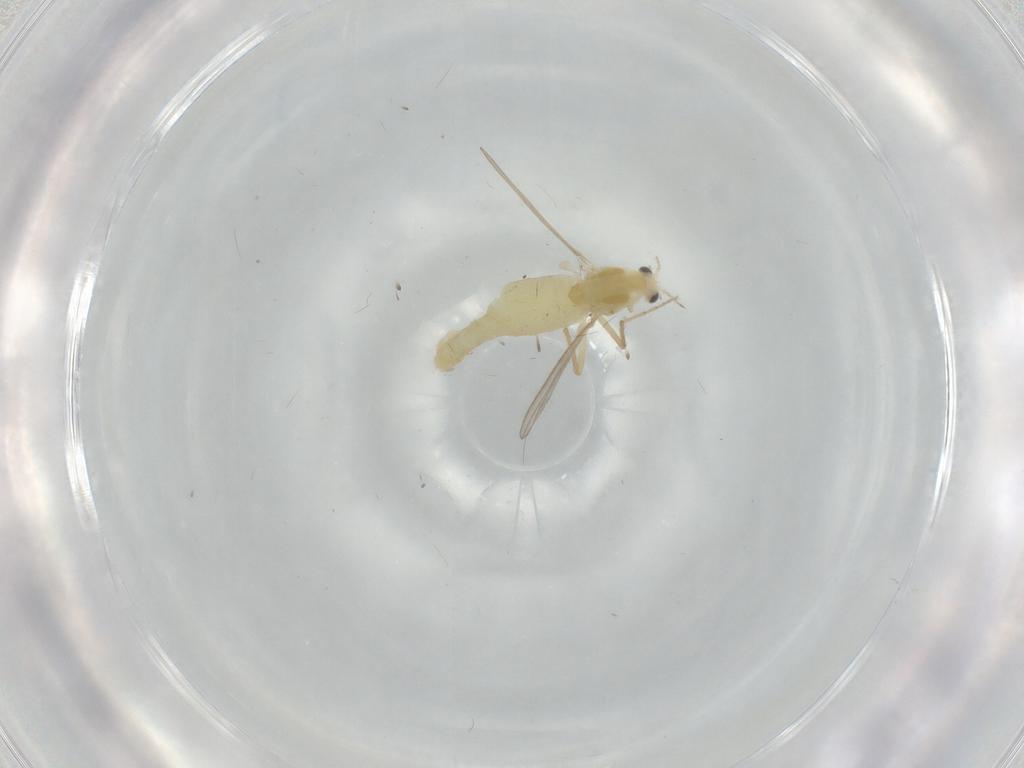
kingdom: Animalia
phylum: Arthropoda
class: Insecta
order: Diptera
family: Chironomidae
